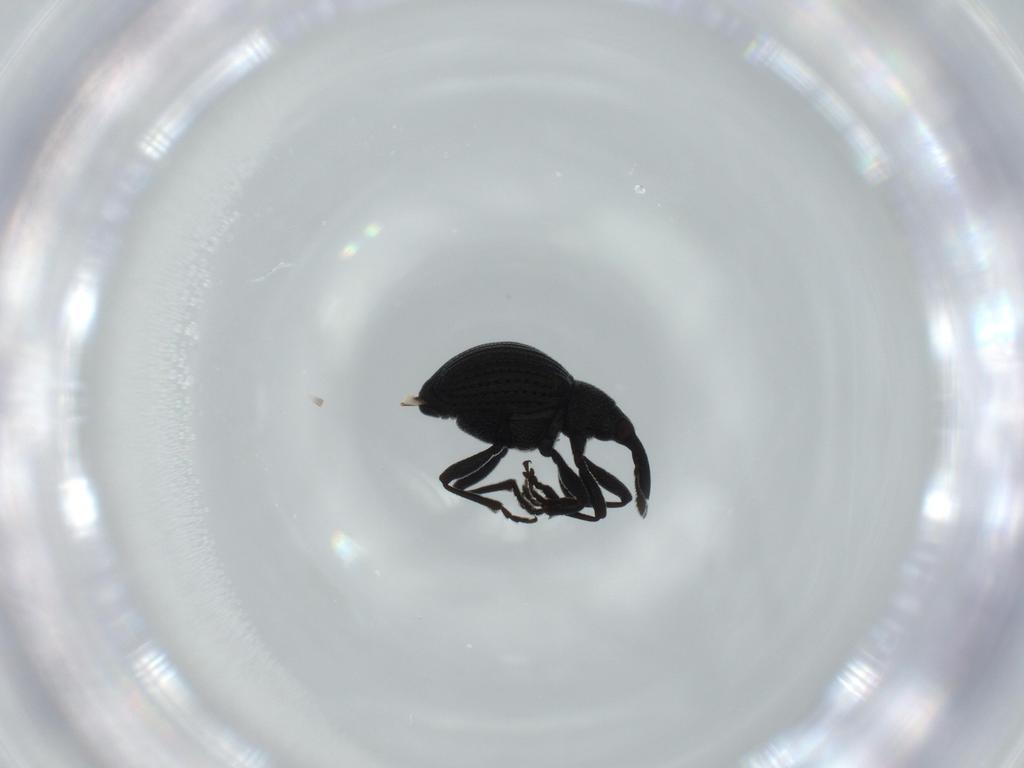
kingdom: Animalia
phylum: Arthropoda
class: Insecta
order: Coleoptera
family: Brentidae
